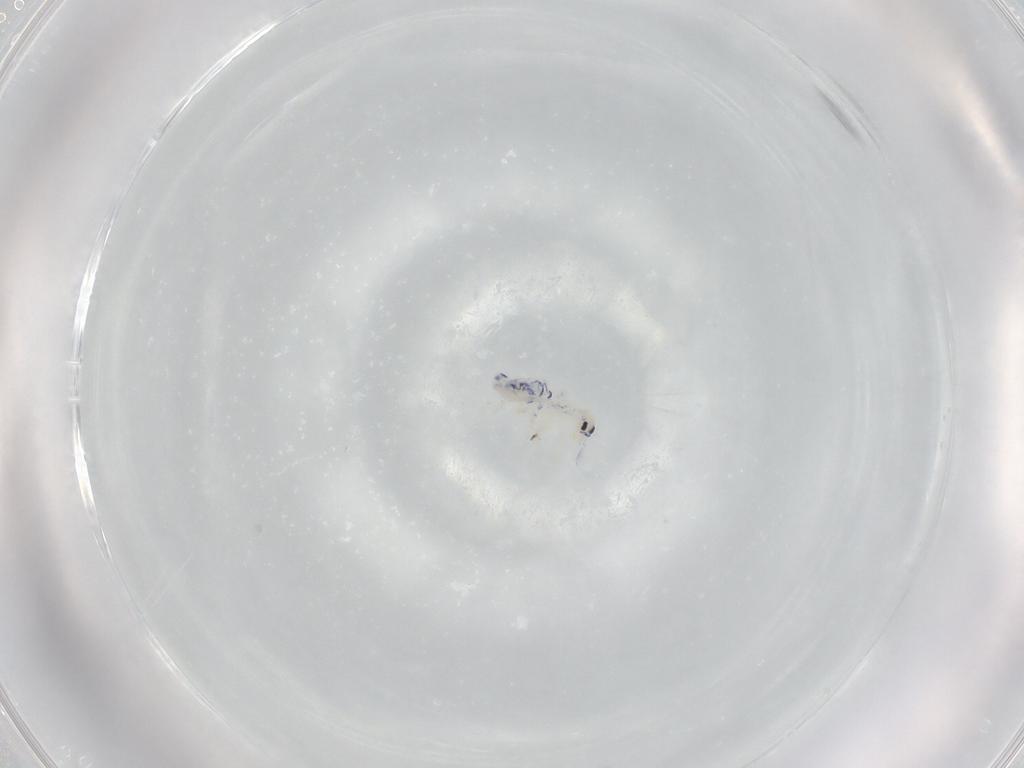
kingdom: Animalia
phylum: Arthropoda
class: Collembola
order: Entomobryomorpha
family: Entomobryidae
